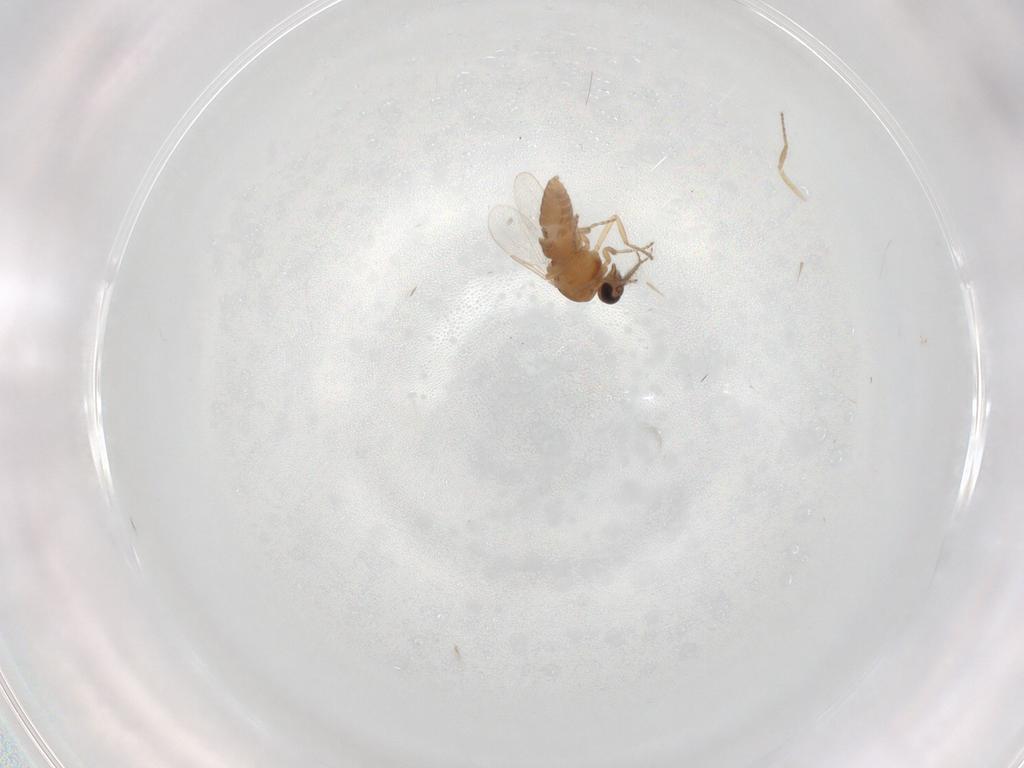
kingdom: Animalia
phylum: Arthropoda
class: Insecta
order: Diptera
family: Ceratopogonidae
